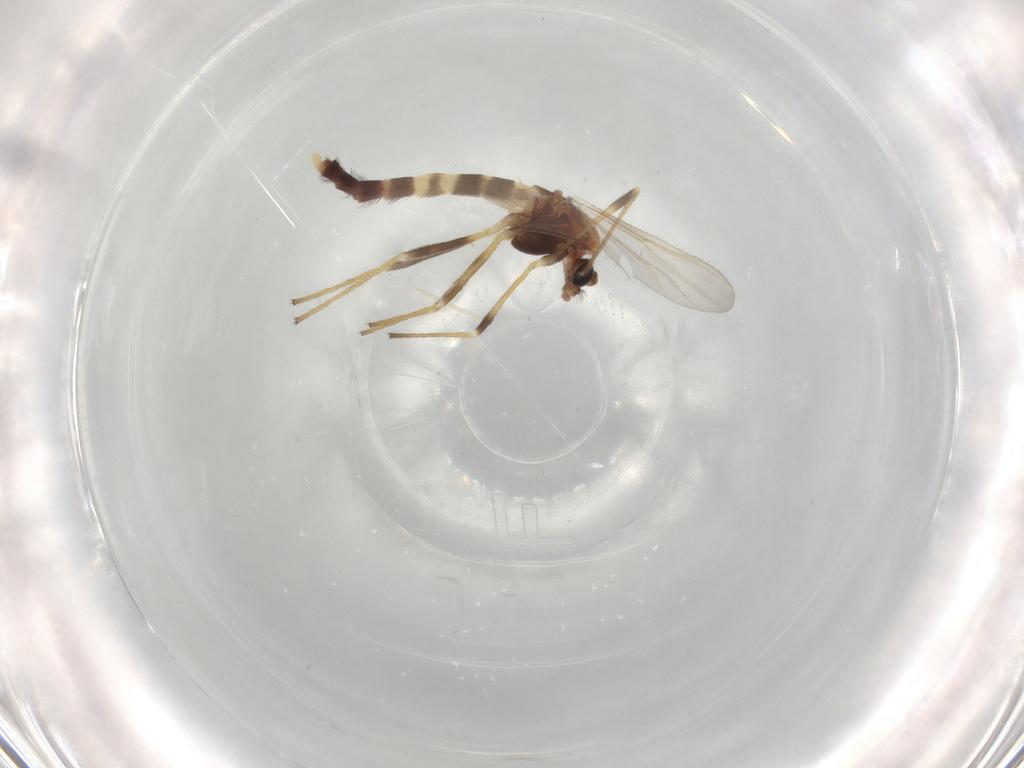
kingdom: Animalia
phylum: Arthropoda
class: Insecta
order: Diptera
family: Chironomidae
